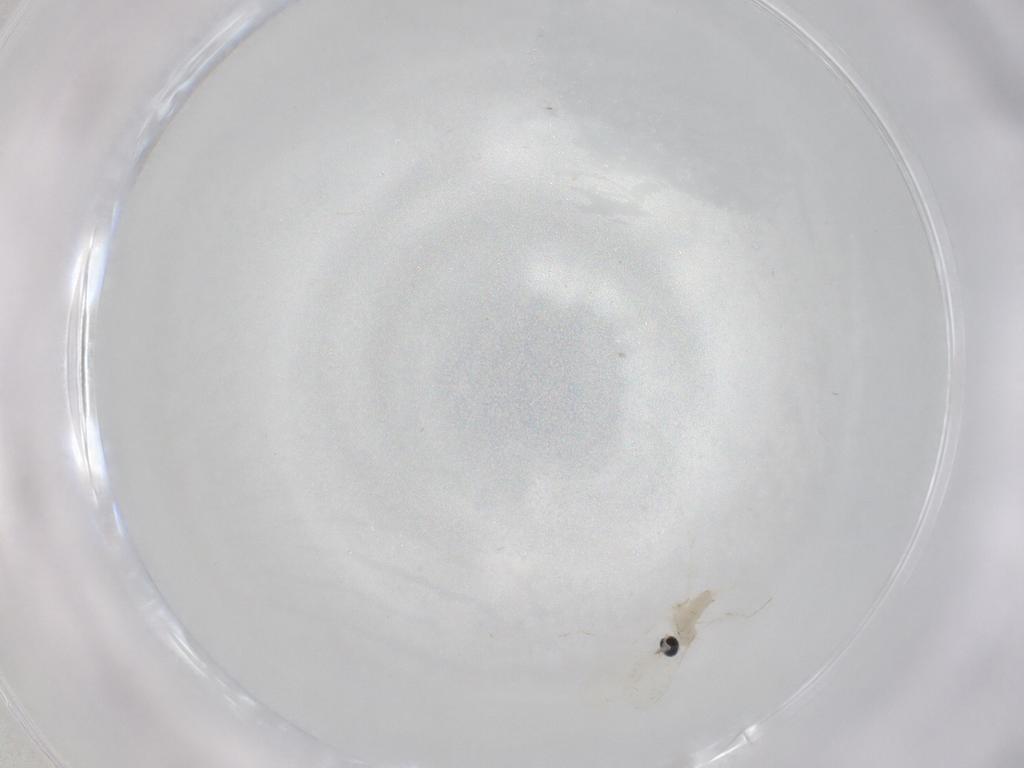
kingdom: Animalia
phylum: Arthropoda
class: Insecta
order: Diptera
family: Cecidomyiidae
